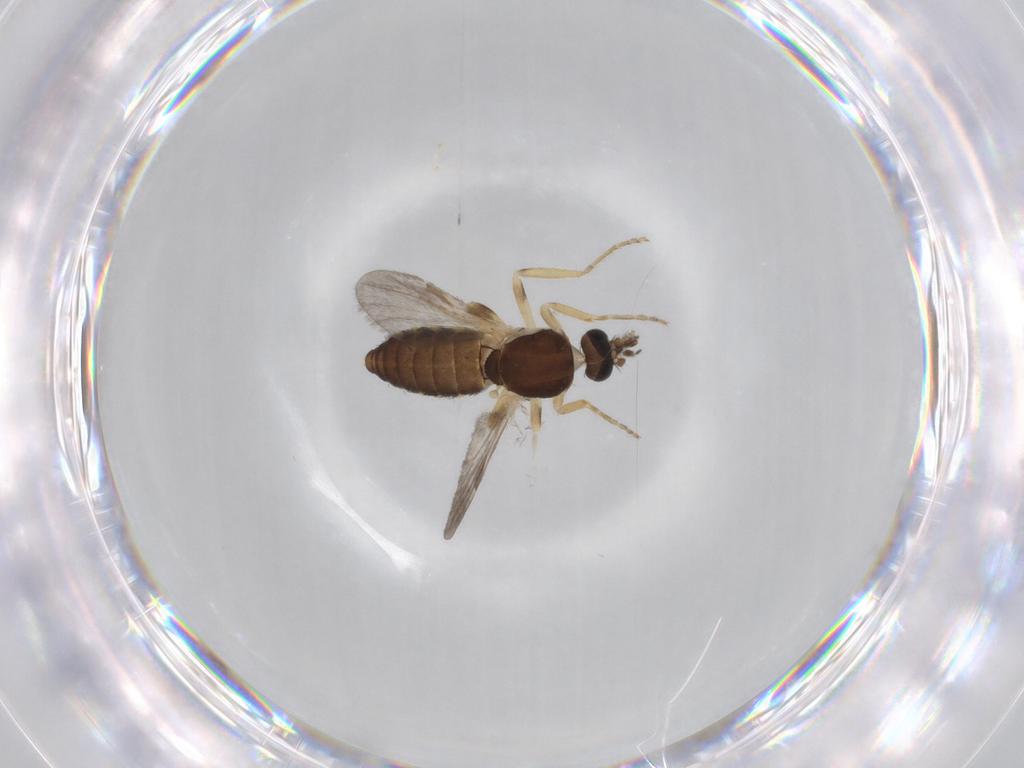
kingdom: Animalia
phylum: Arthropoda
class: Insecta
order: Diptera
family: Ceratopogonidae
